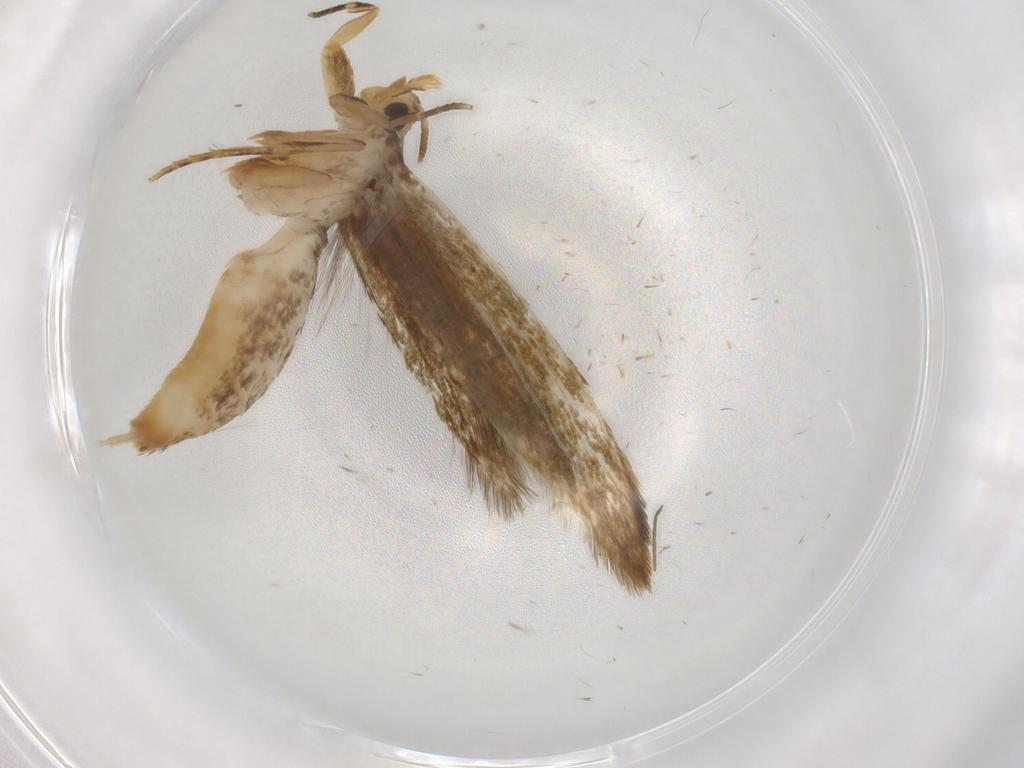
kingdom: Animalia
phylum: Arthropoda
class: Insecta
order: Lepidoptera
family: Tineidae
